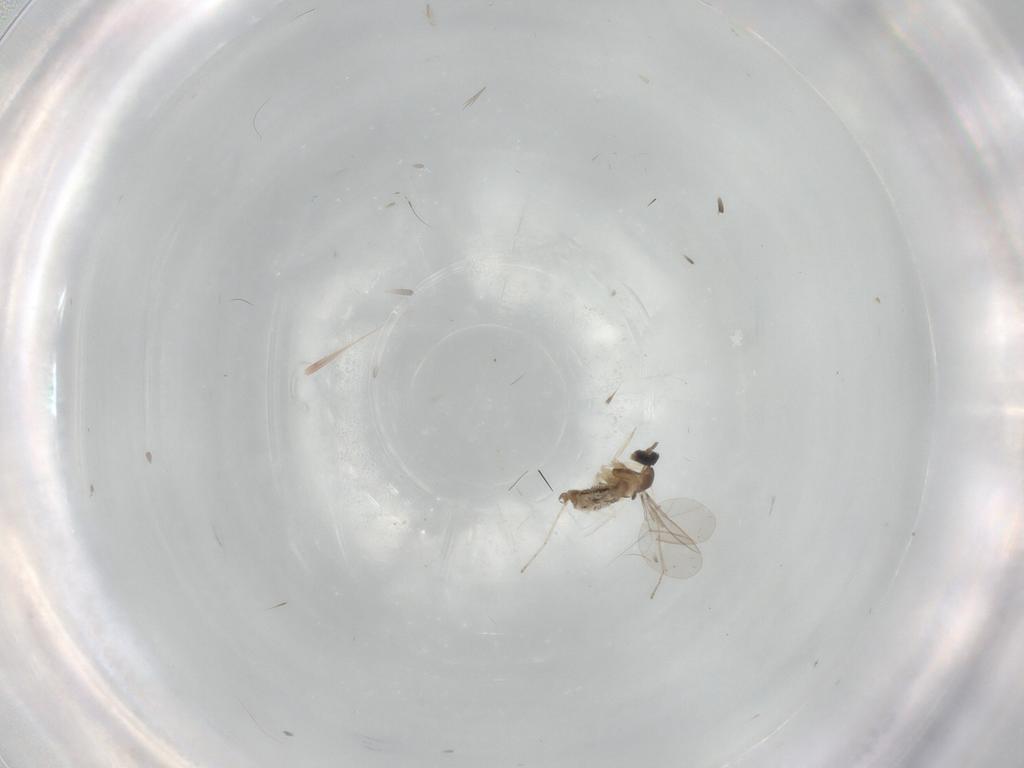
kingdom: Animalia
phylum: Arthropoda
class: Insecta
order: Diptera
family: Cecidomyiidae
